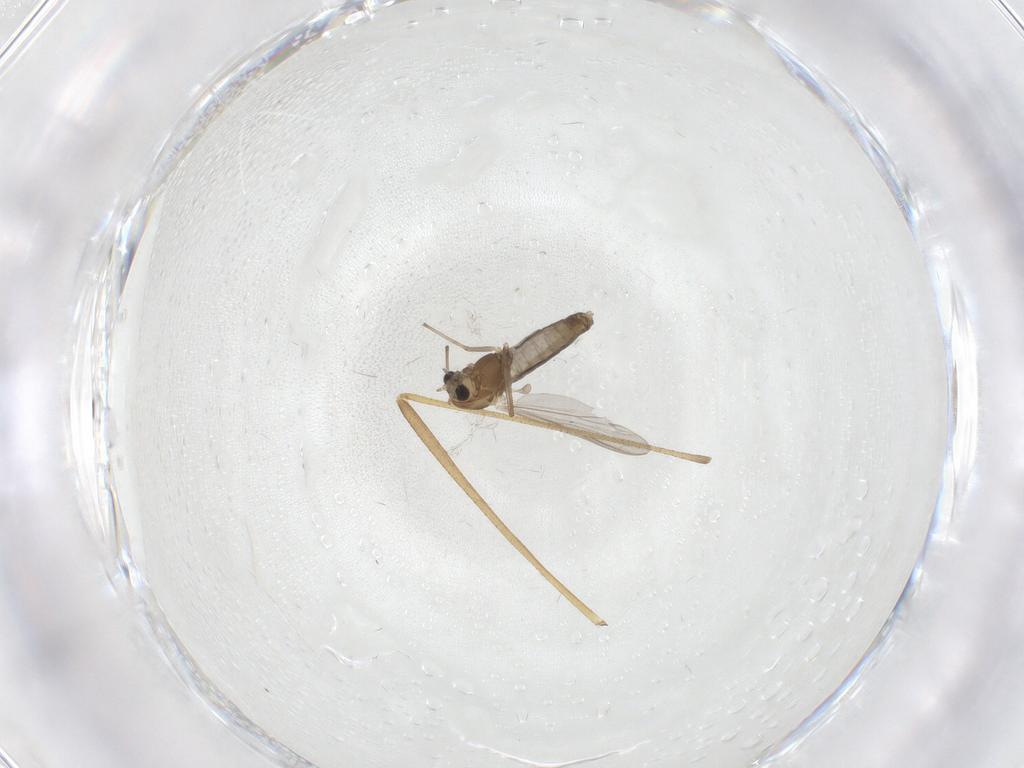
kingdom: Animalia
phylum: Arthropoda
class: Insecta
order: Diptera
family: Chironomidae
